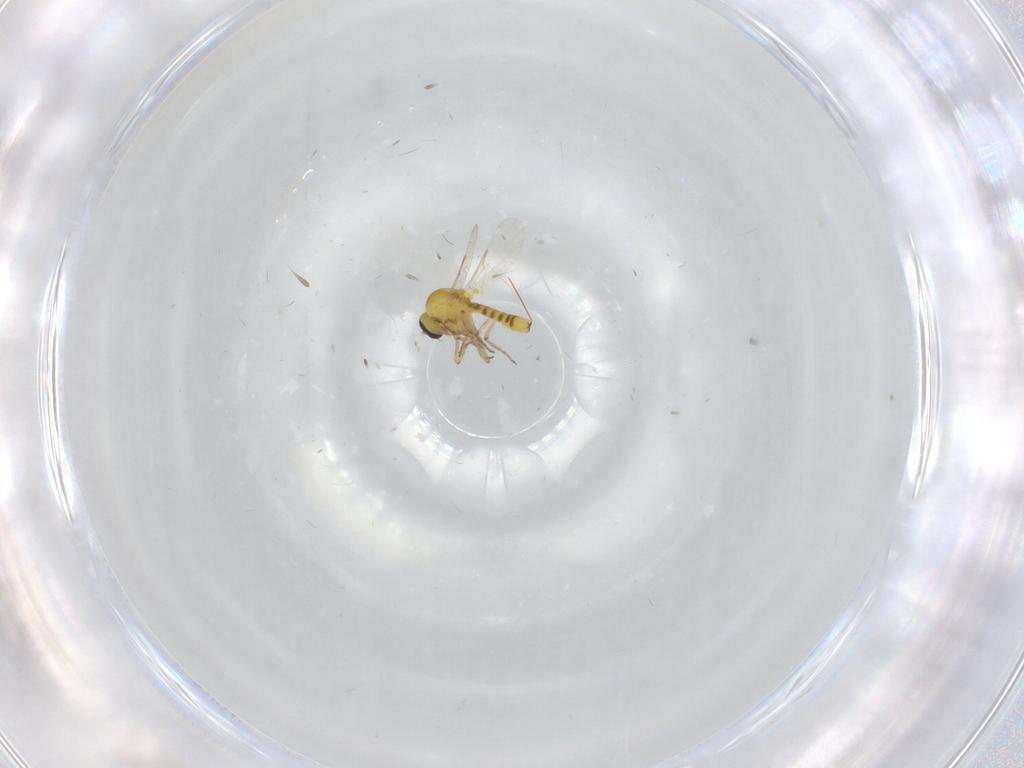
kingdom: Animalia
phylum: Arthropoda
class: Insecta
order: Diptera
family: Ceratopogonidae
